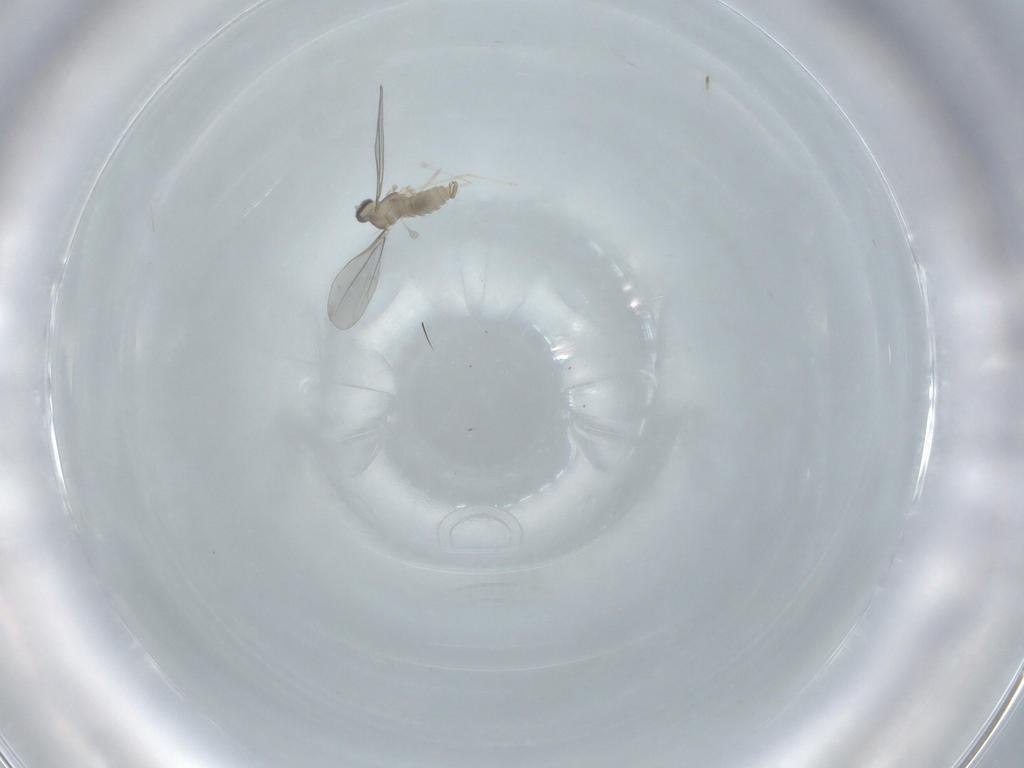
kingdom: Animalia
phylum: Arthropoda
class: Insecta
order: Diptera
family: Cecidomyiidae
